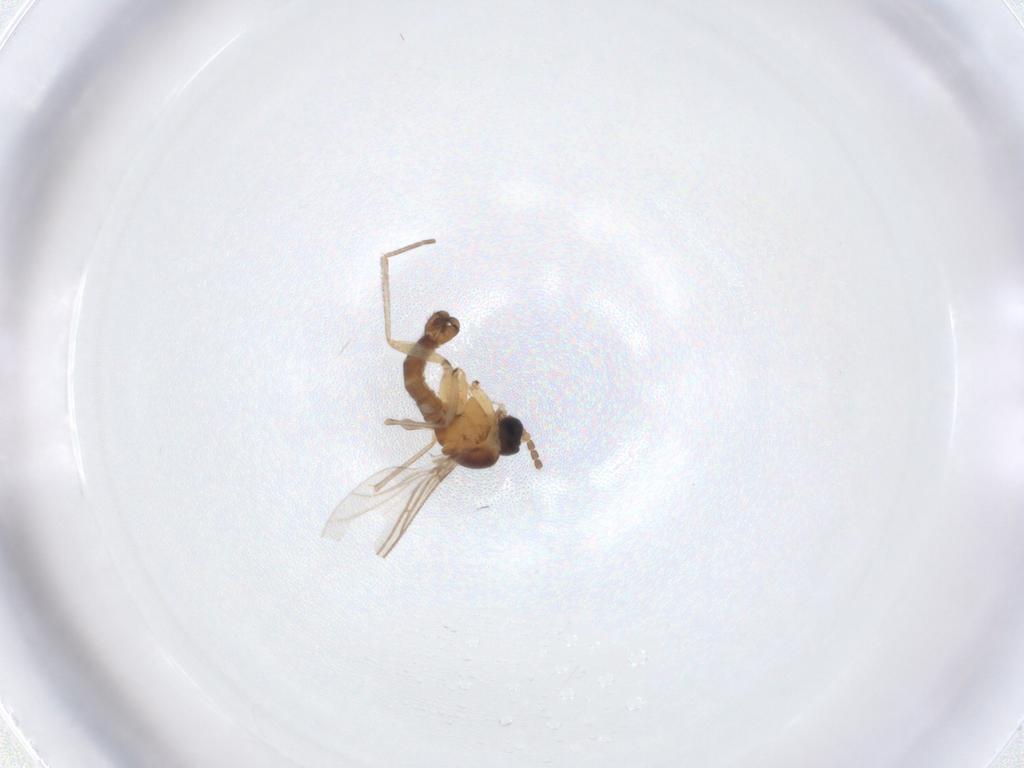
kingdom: Animalia
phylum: Arthropoda
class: Insecta
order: Diptera
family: Sciaridae
